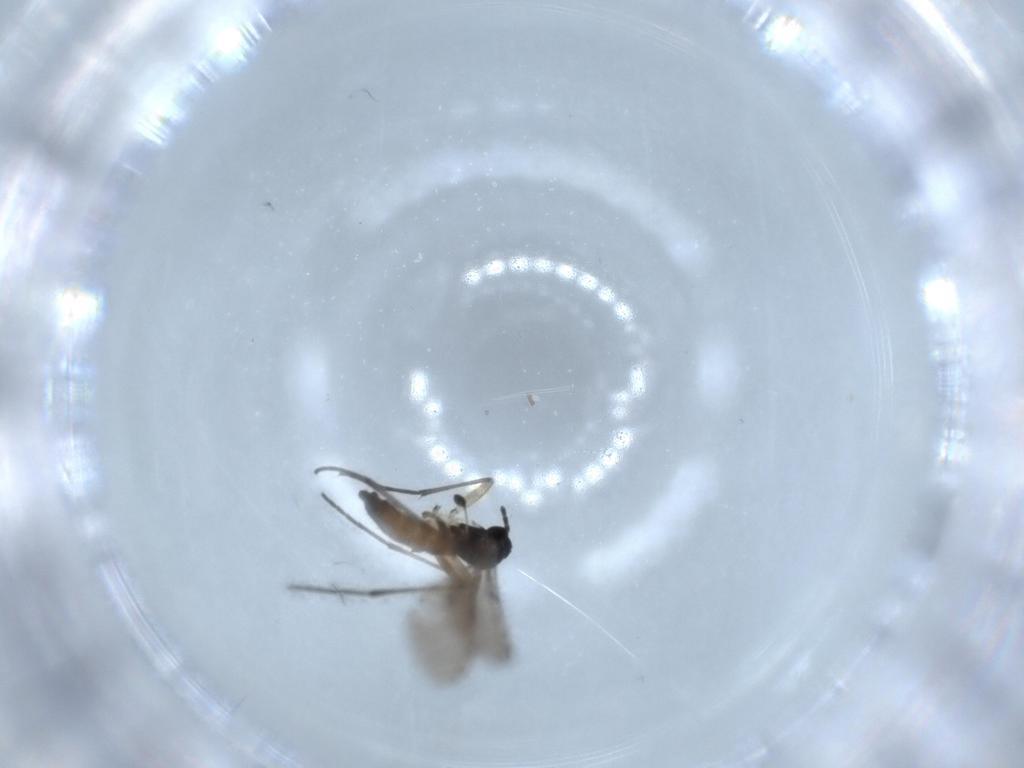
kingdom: Animalia
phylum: Arthropoda
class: Insecta
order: Diptera
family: Sciaridae
